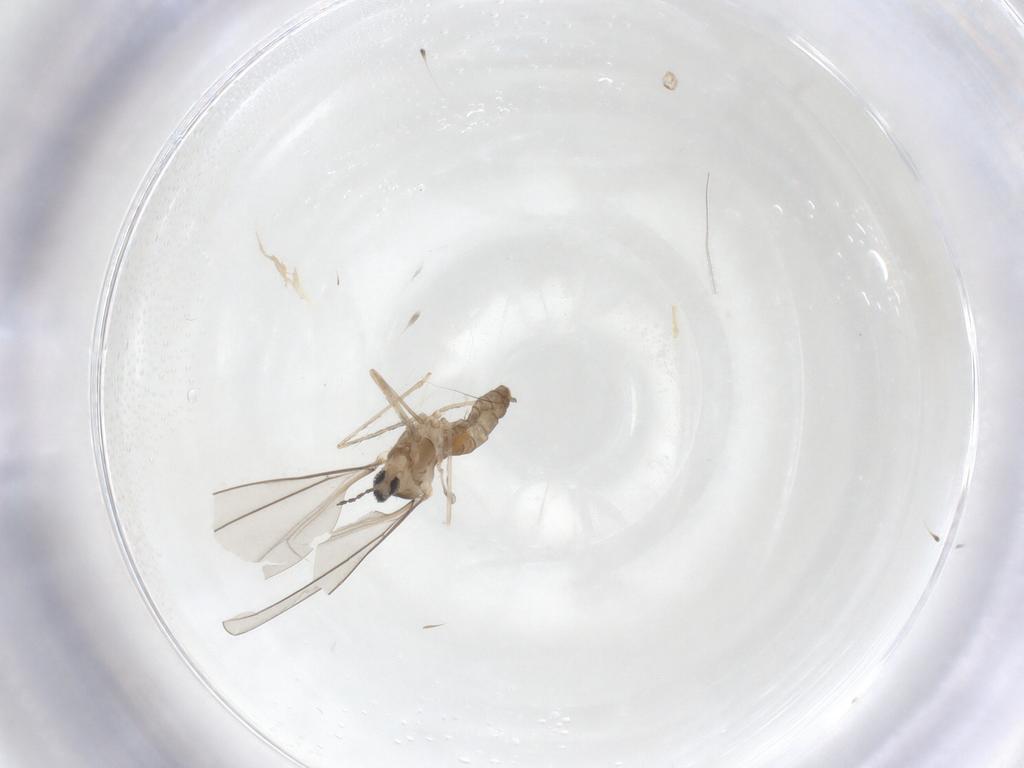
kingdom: Animalia
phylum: Arthropoda
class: Insecta
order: Diptera
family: Cecidomyiidae
